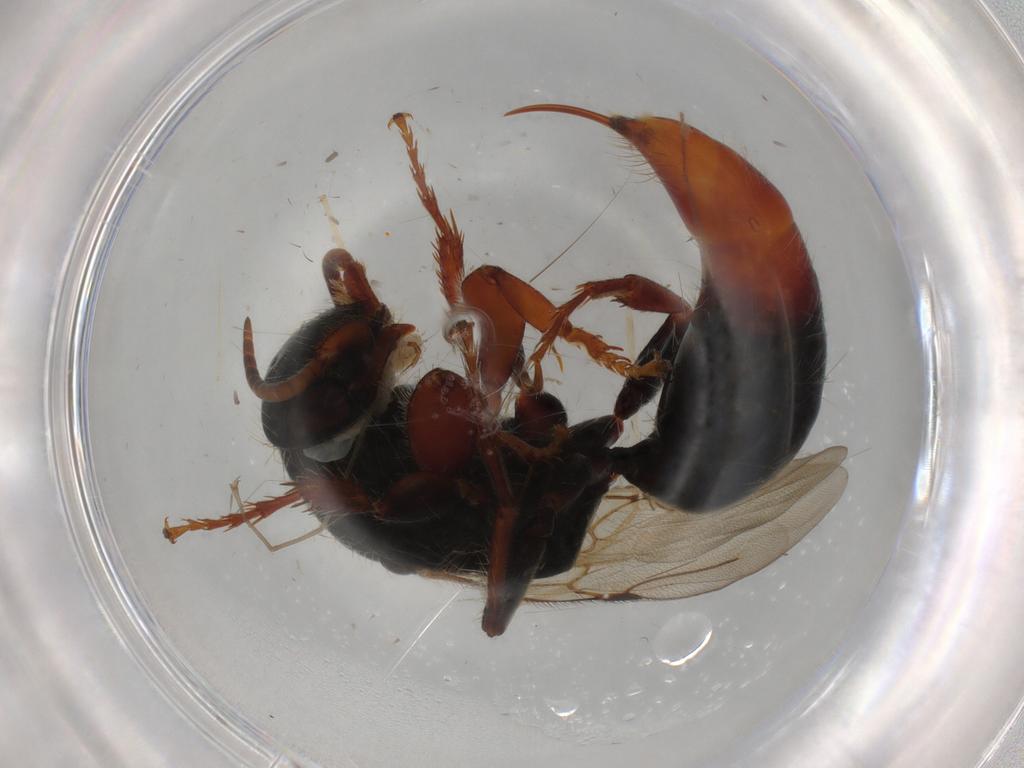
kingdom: Animalia
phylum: Arthropoda
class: Insecta
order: Hymenoptera
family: Bethylidae
